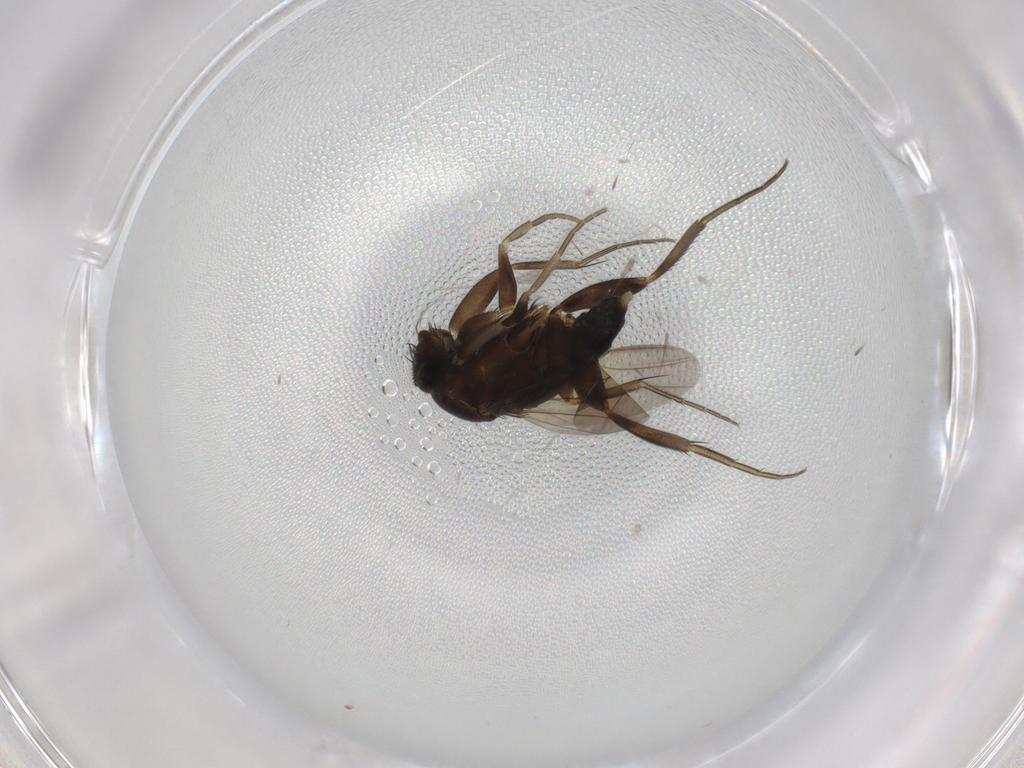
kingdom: Animalia
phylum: Arthropoda
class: Insecta
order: Diptera
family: Phoridae
